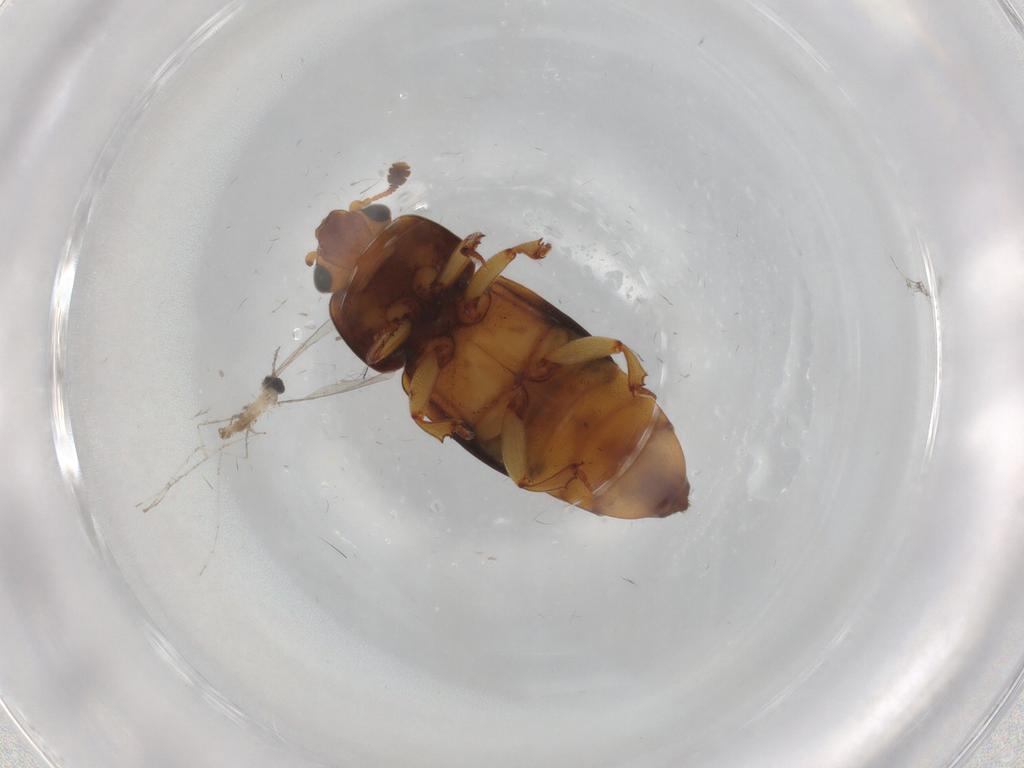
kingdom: Animalia
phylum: Arthropoda
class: Insecta
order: Coleoptera
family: Nitidulidae
